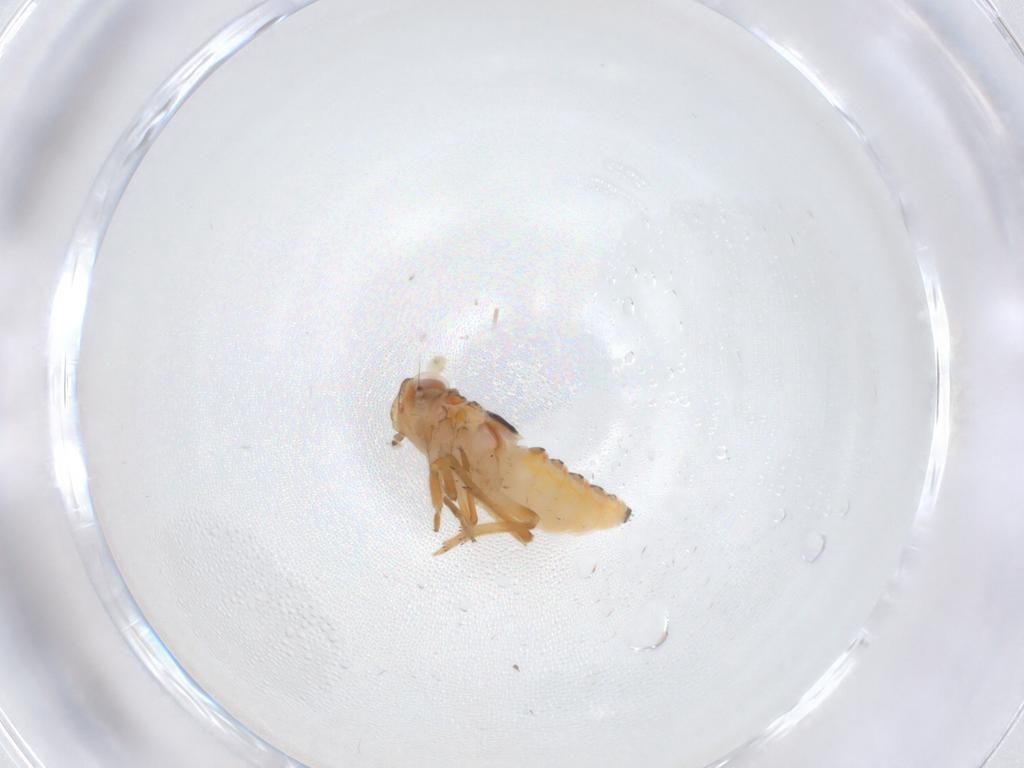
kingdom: Animalia
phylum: Arthropoda
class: Insecta
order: Hemiptera
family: Issidae
